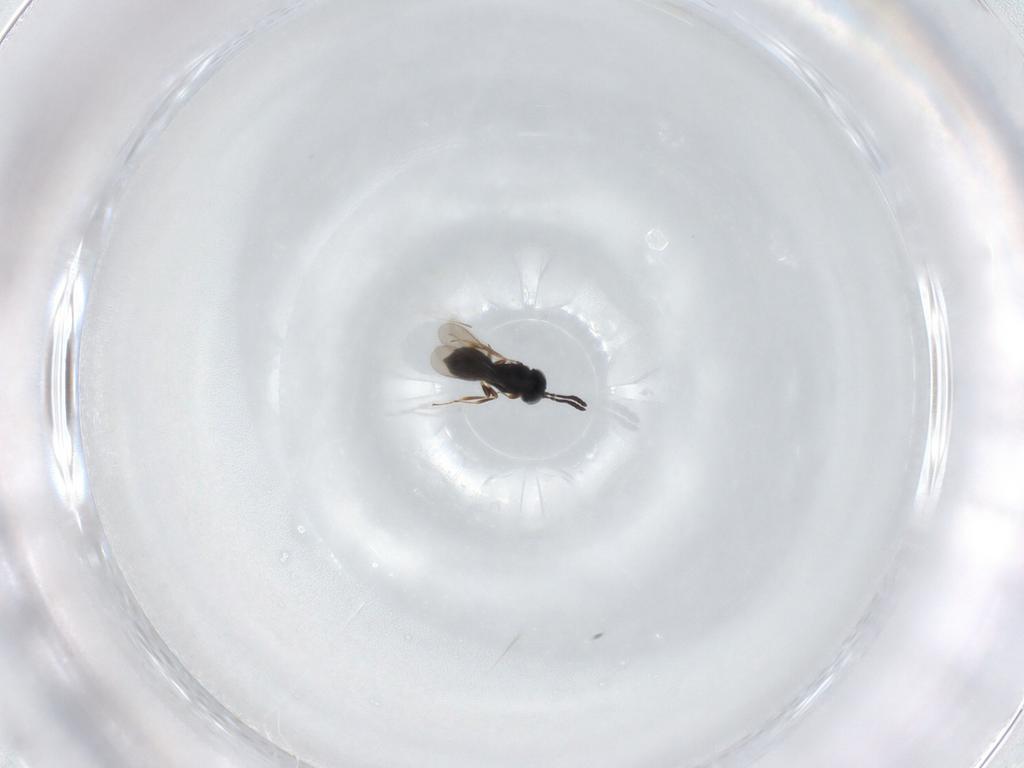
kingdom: Animalia
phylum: Arthropoda
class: Insecta
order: Hymenoptera
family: Scelionidae
